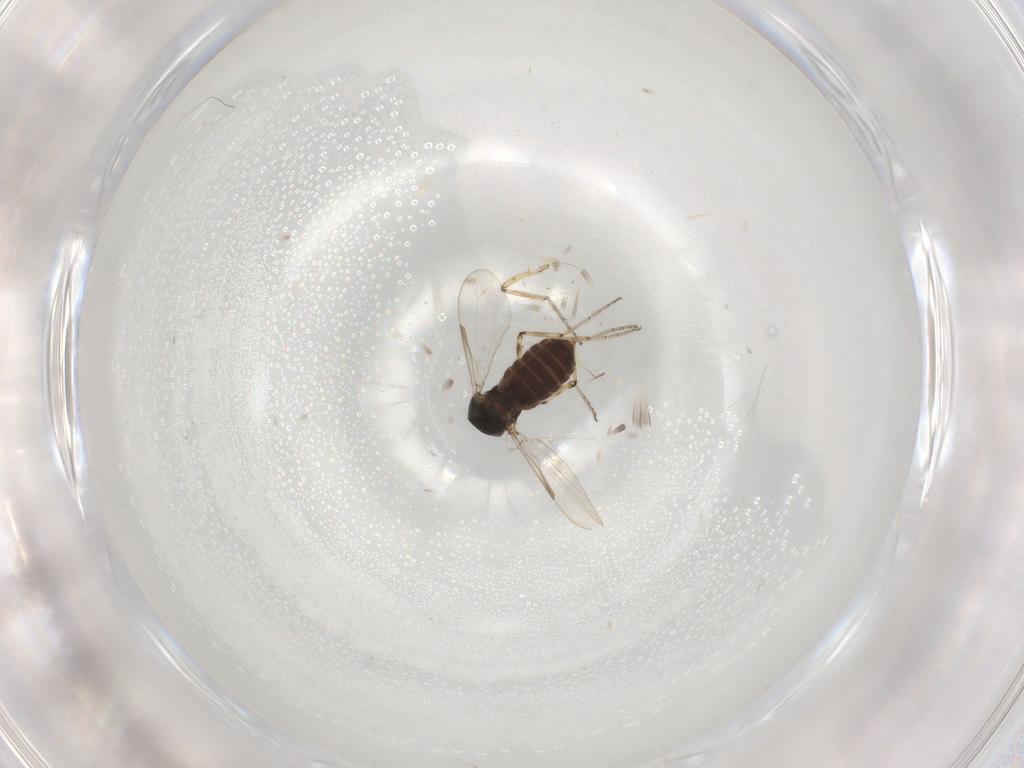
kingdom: Animalia
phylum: Arthropoda
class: Insecta
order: Diptera
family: Ceratopogonidae
